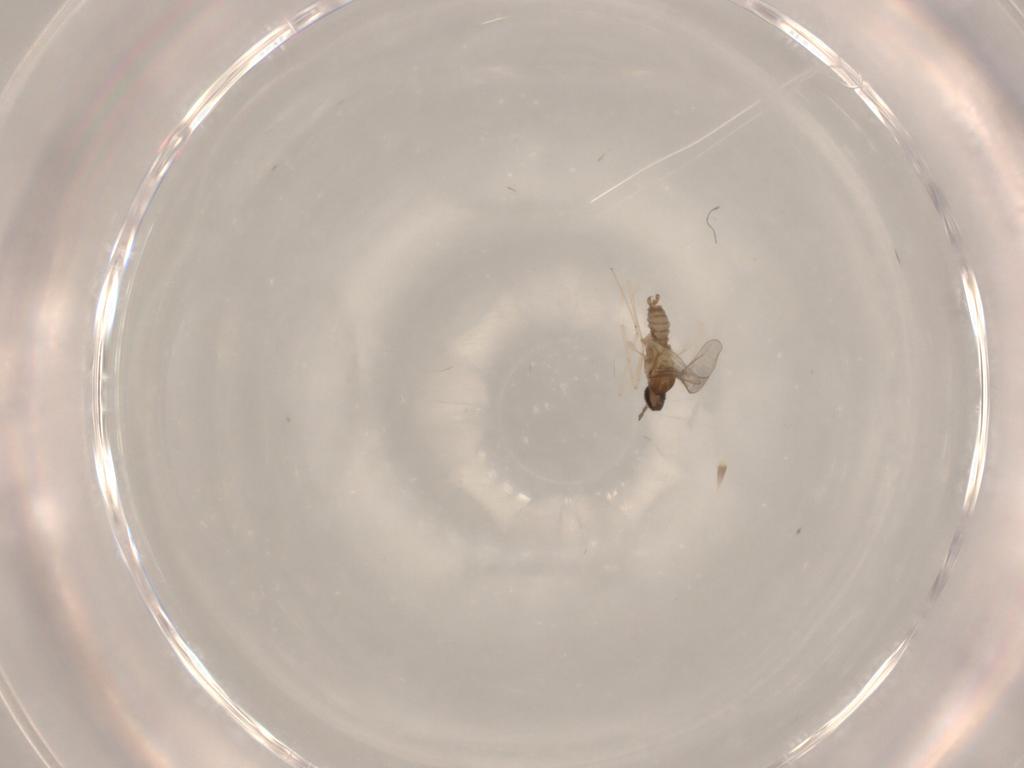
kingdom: Animalia
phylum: Arthropoda
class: Insecta
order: Diptera
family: Cecidomyiidae
